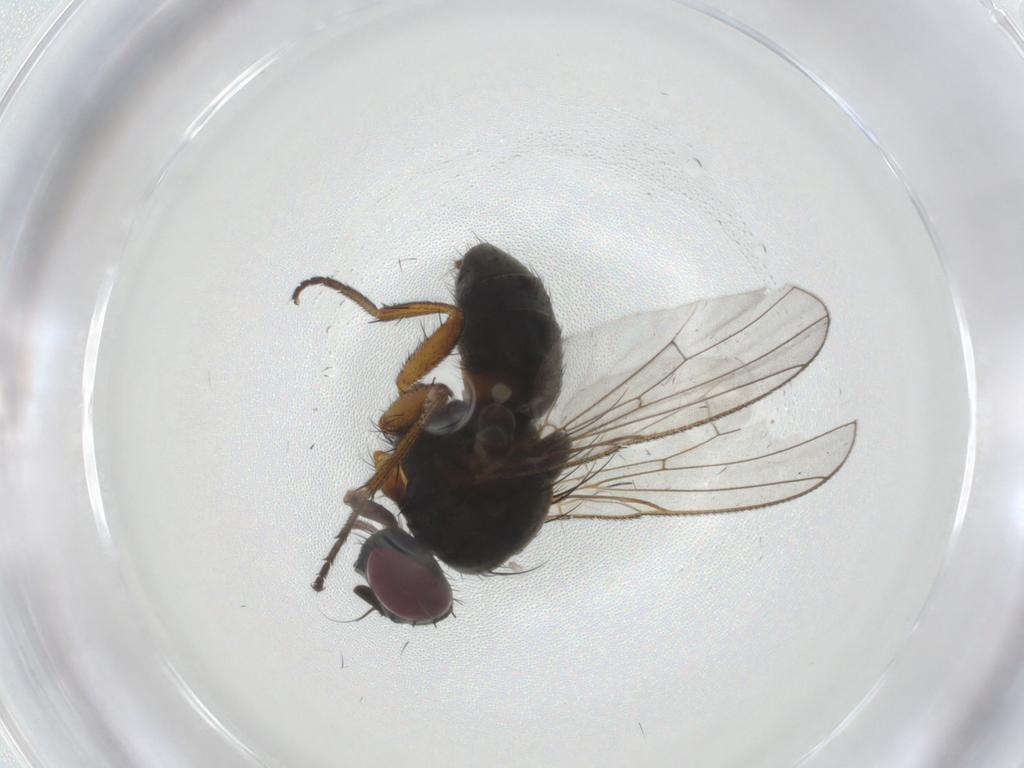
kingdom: Animalia
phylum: Arthropoda
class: Insecta
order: Diptera
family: Muscidae
